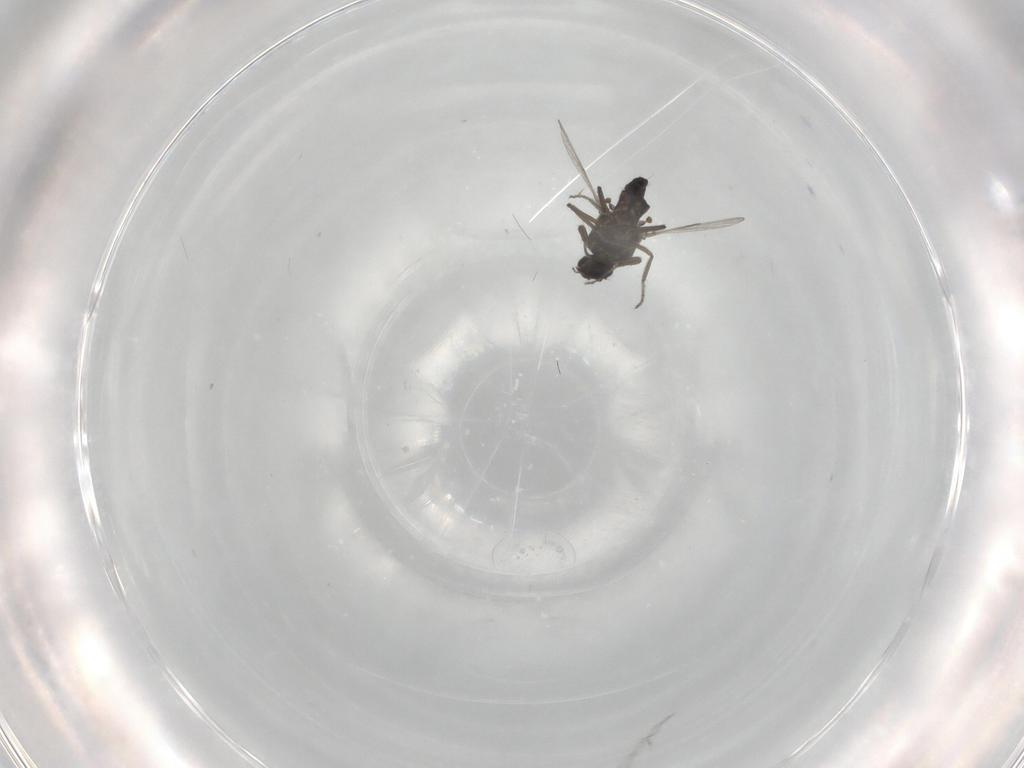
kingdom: Animalia
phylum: Arthropoda
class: Insecta
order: Diptera
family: Ceratopogonidae
